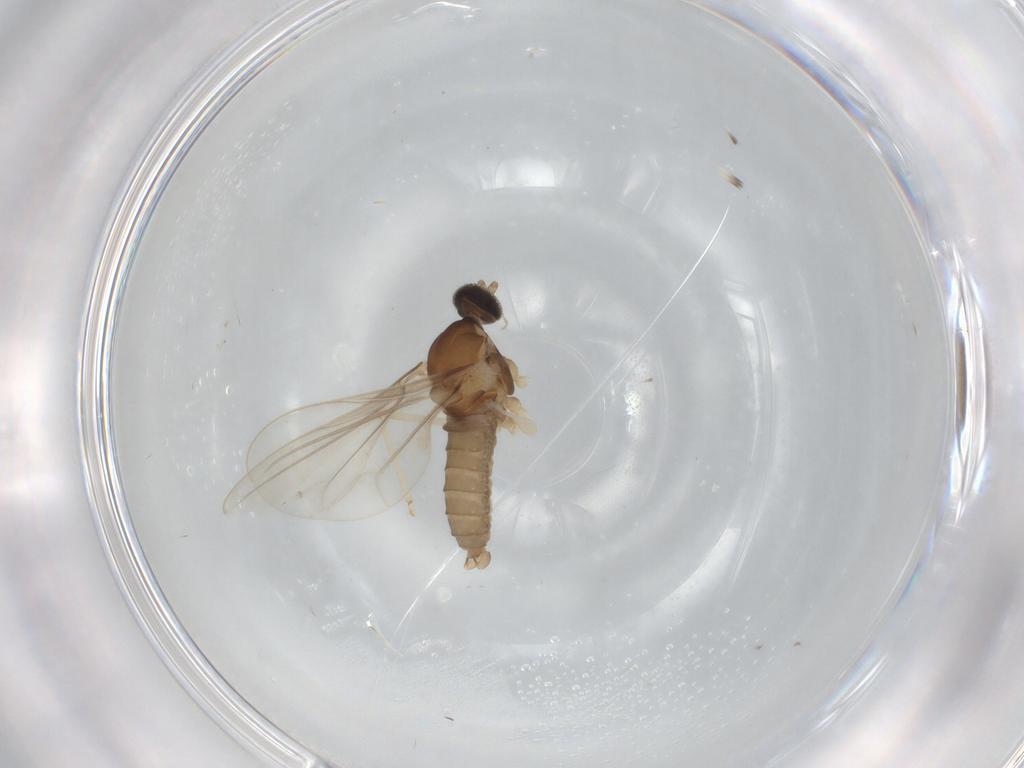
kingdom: Animalia
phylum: Arthropoda
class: Insecta
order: Diptera
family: Cecidomyiidae
